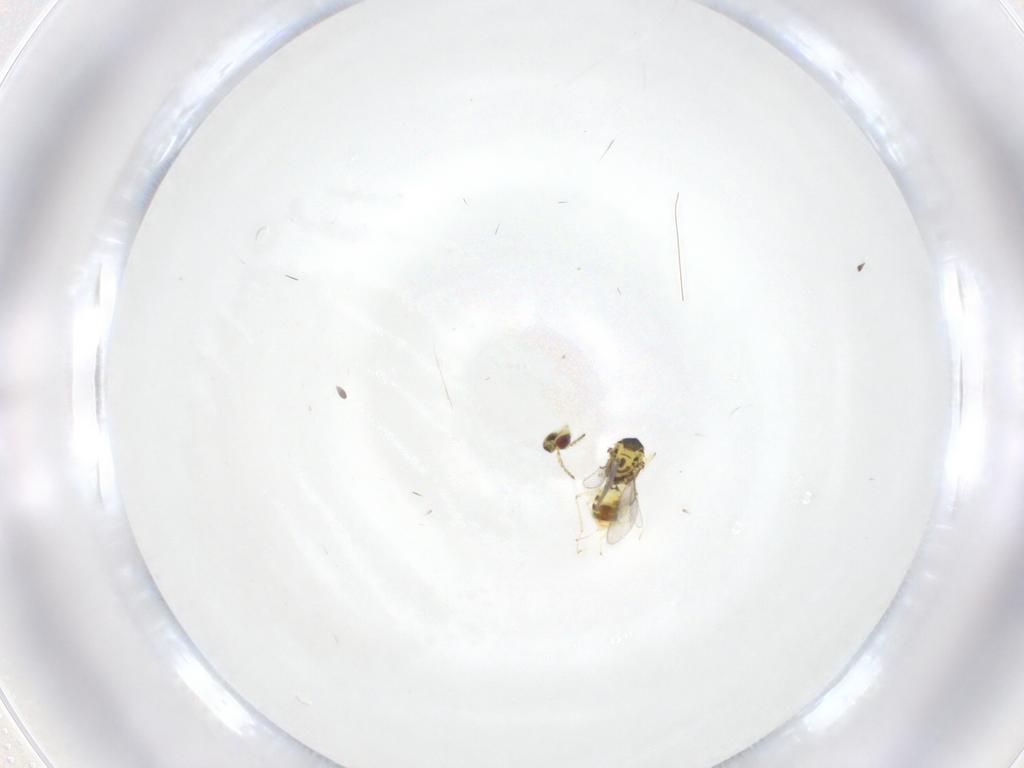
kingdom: Animalia
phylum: Arthropoda
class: Insecta
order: Hymenoptera
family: Eulophidae
